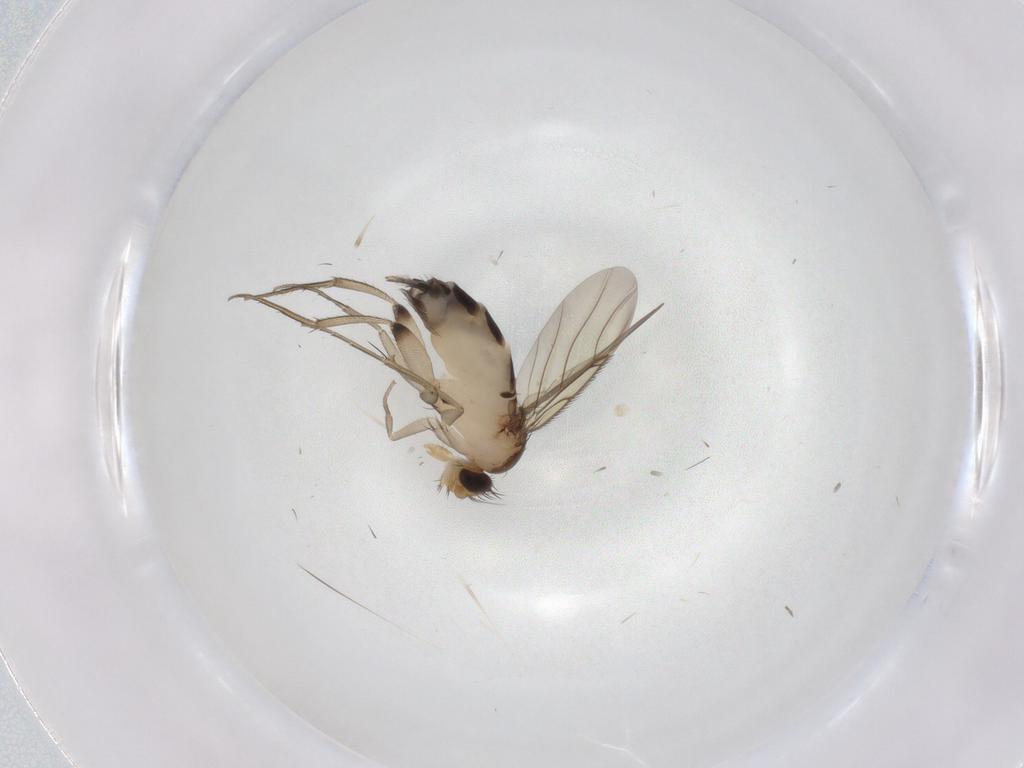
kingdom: Animalia
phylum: Arthropoda
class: Insecta
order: Diptera
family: Phoridae
